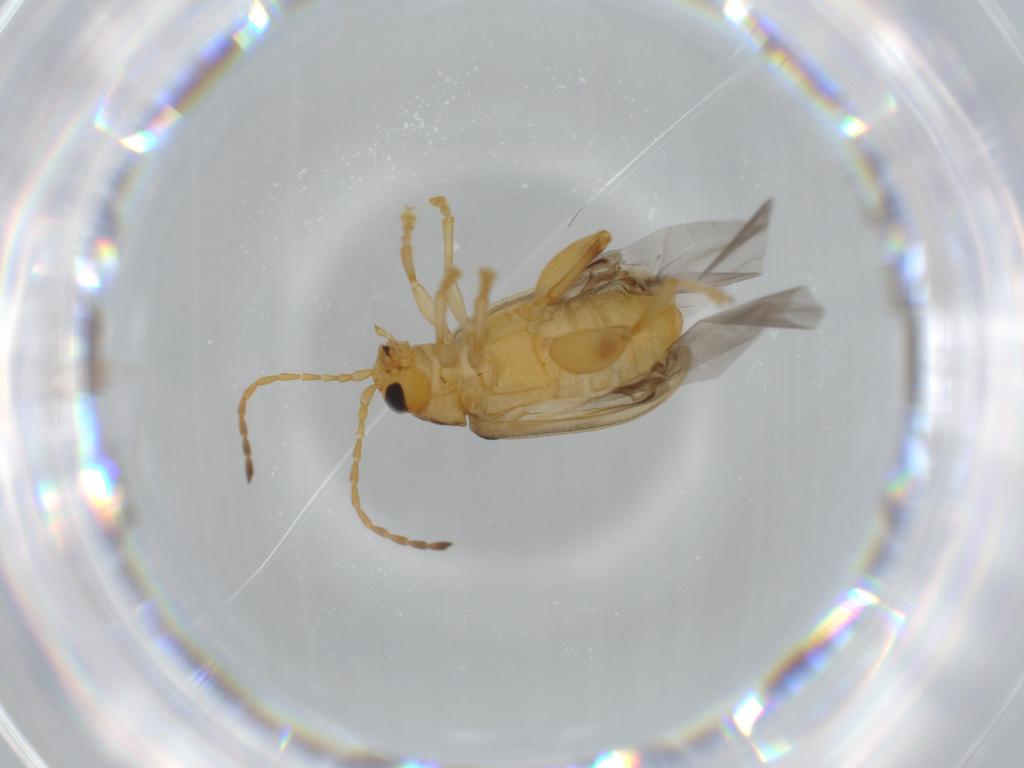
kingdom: Animalia
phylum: Arthropoda
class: Insecta
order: Coleoptera
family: Chrysomelidae
